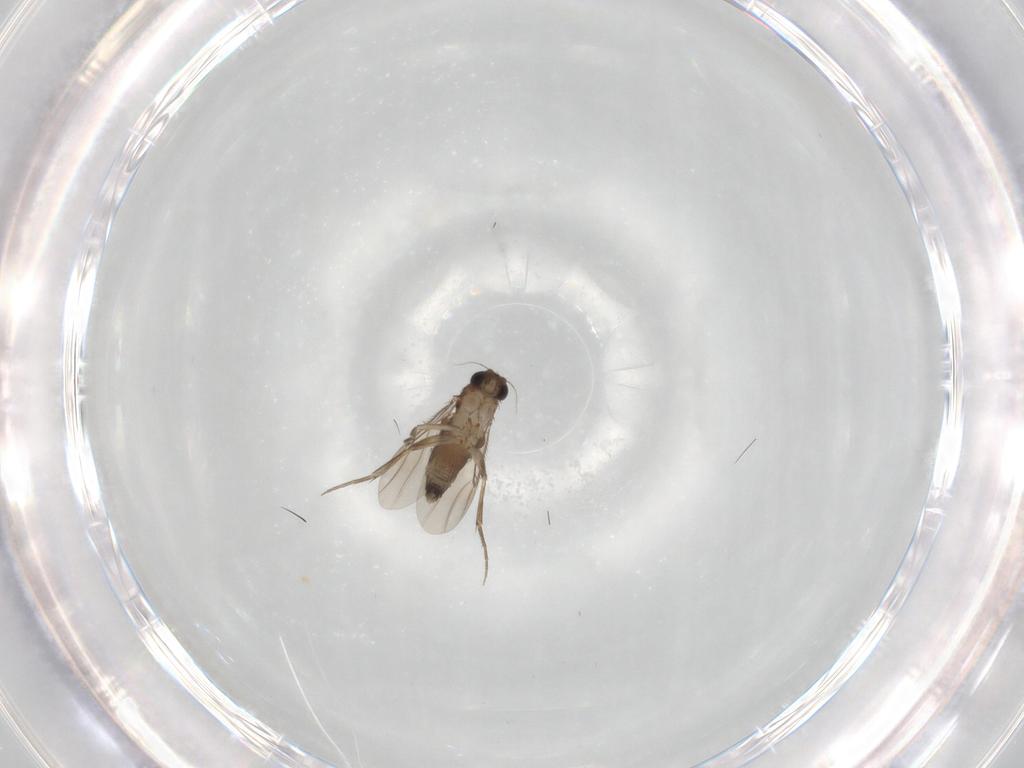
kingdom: Animalia
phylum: Arthropoda
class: Insecta
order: Diptera
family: Phoridae
